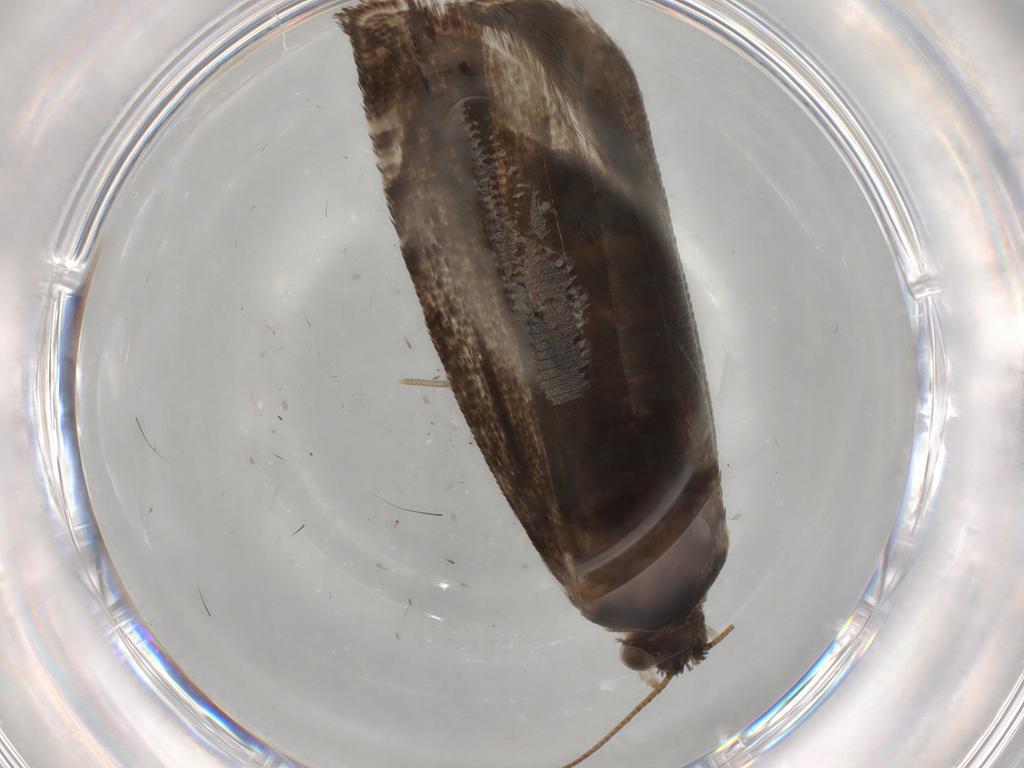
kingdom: Animalia
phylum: Arthropoda
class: Insecta
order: Lepidoptera
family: Tortricidae
